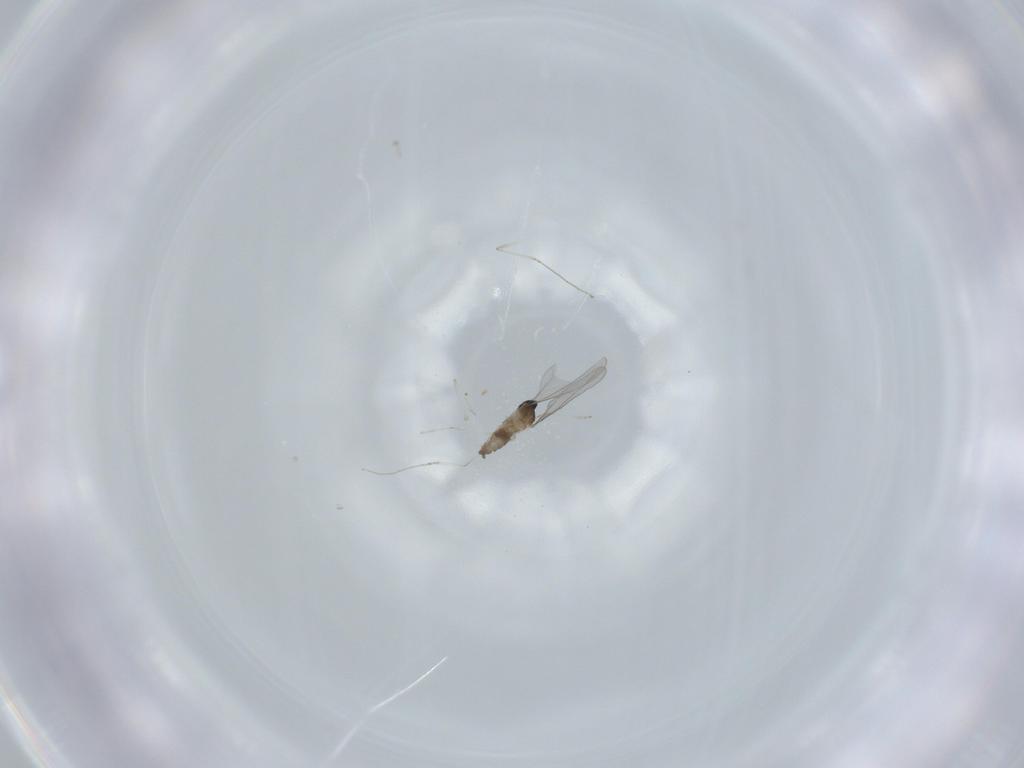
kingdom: Animalia
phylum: Arthropoda
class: Insecta
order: Diptera
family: Cecidomyiidae
